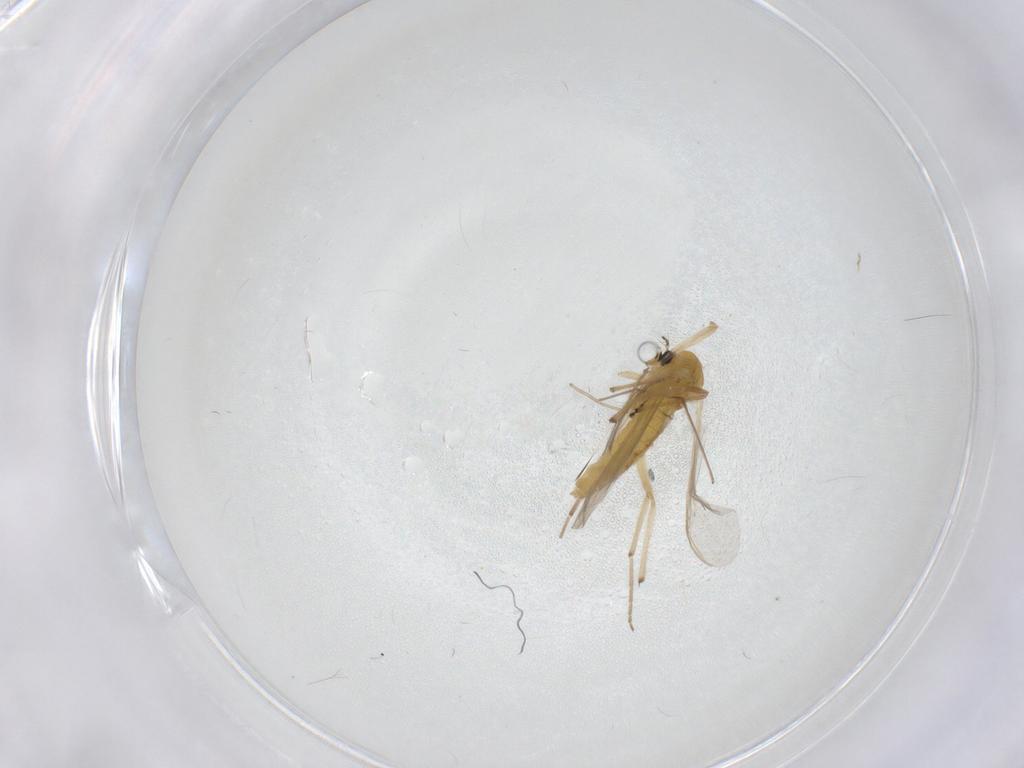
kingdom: Animalia
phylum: Arthropoda
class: Insecta
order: Diptera
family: Chironomidae
